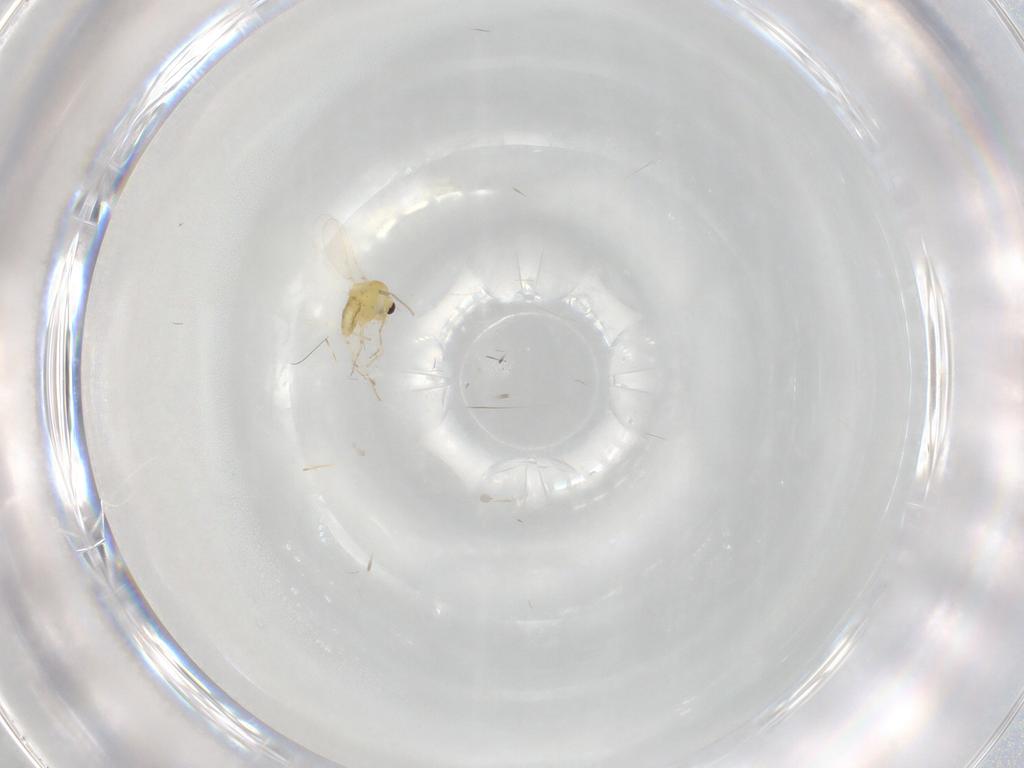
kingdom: Animalia
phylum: Arthropoda
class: Insecta
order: Diptera
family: Chironomidae
